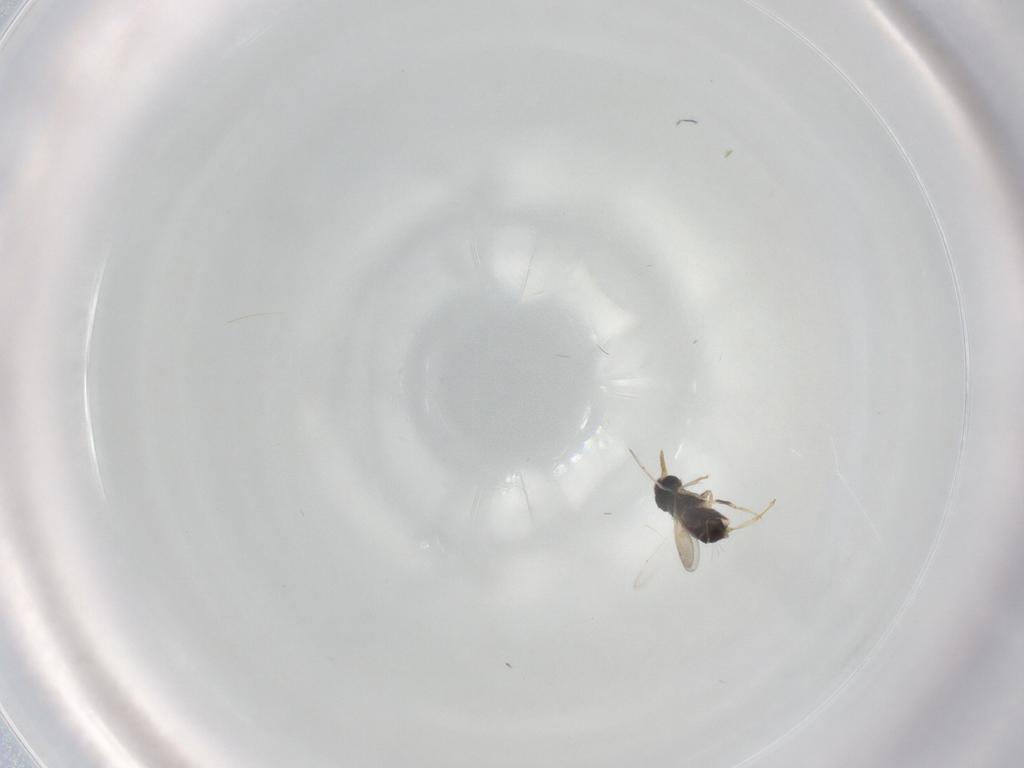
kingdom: Animalia
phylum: Arthropoda
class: Insecta
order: Hymenoptera
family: Aphelinidae
